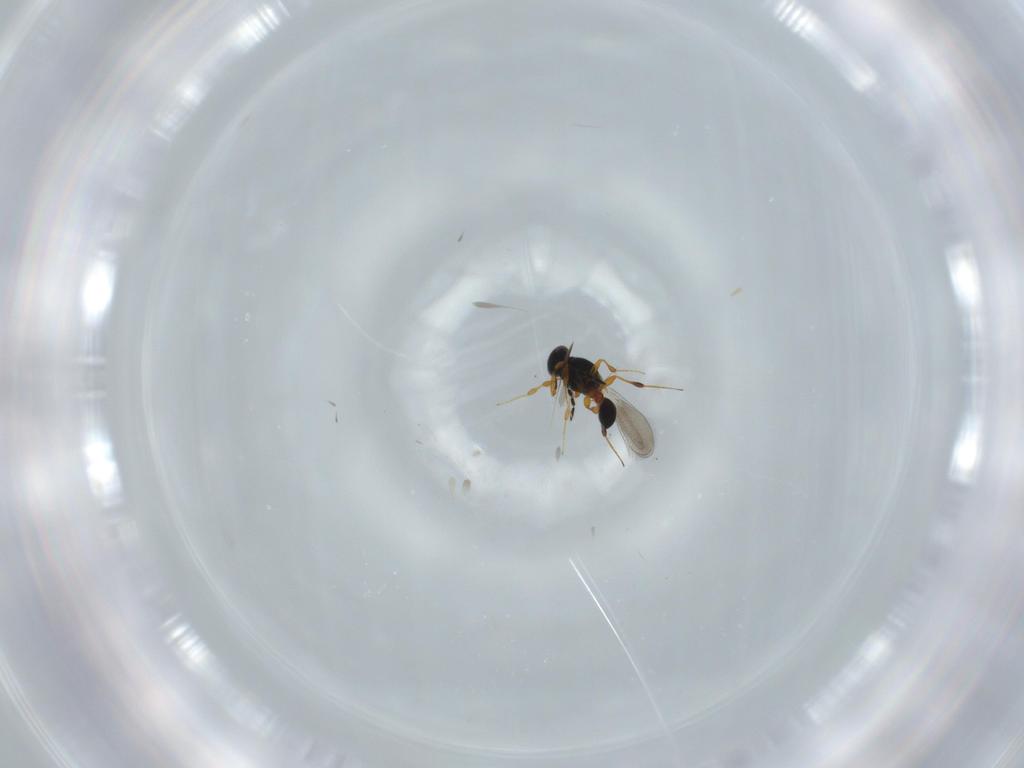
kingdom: Animalia
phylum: Arthropoda
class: Insecta
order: Hymenoptera
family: Platygastridae
